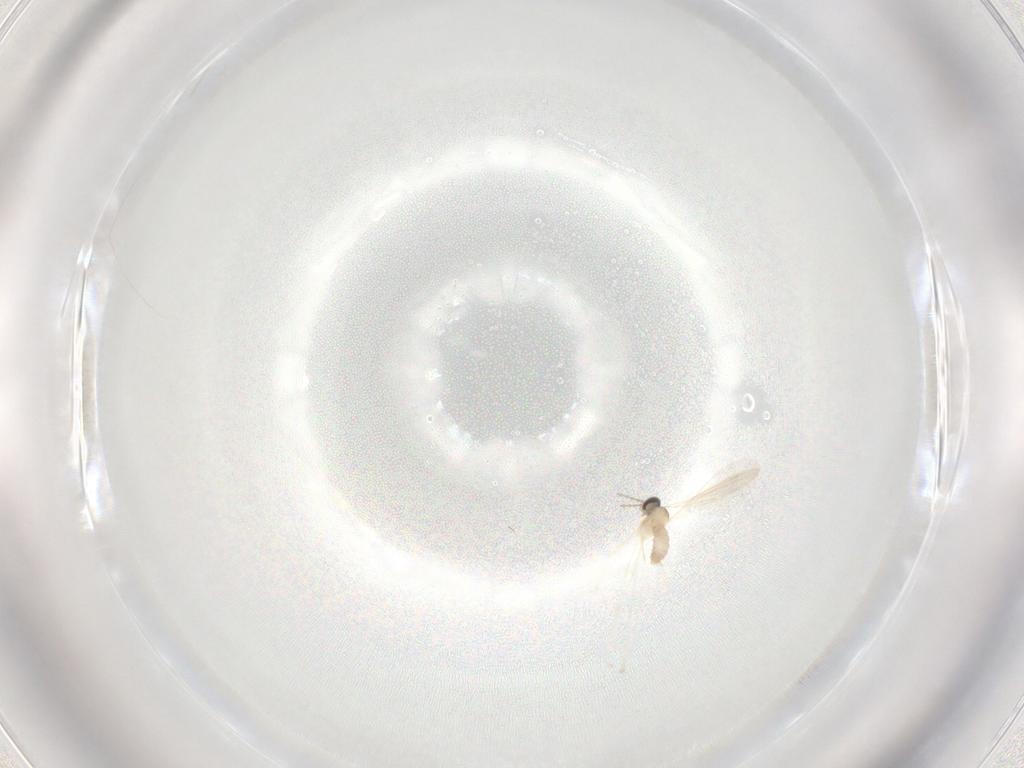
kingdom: Animalia
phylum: Arthropoda
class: Insecta
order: Diptera
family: Cecidomyiidae
